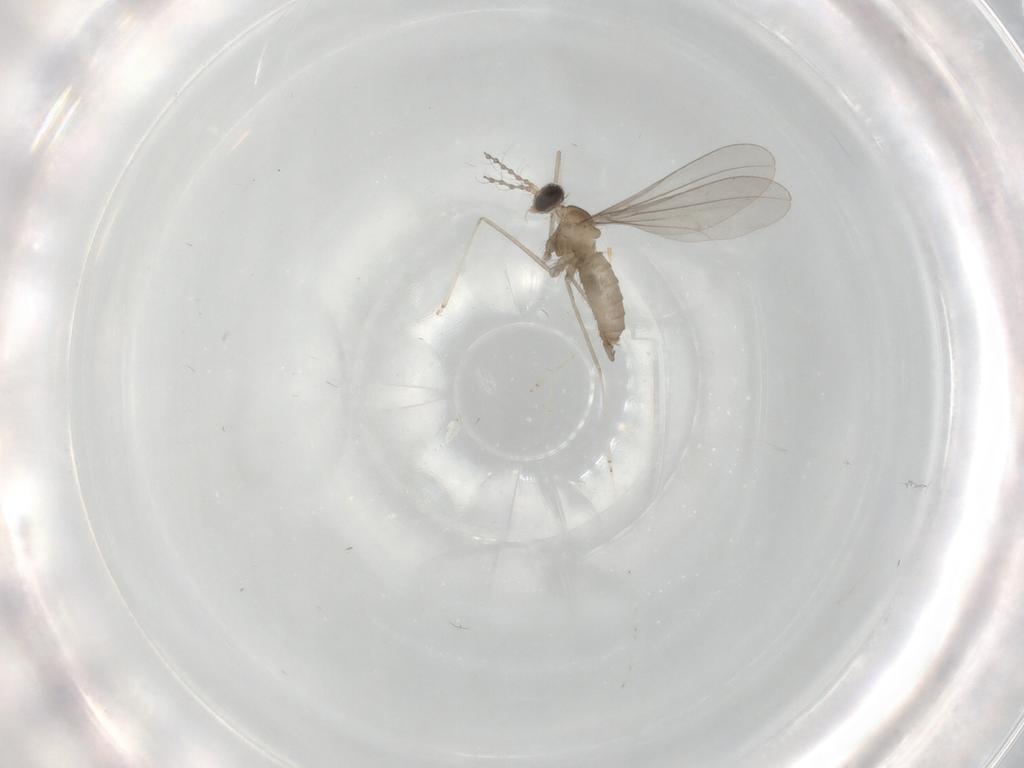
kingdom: Animalia
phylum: Arthropoda
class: Insecta
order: Diptera
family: Cecidomyiidae
